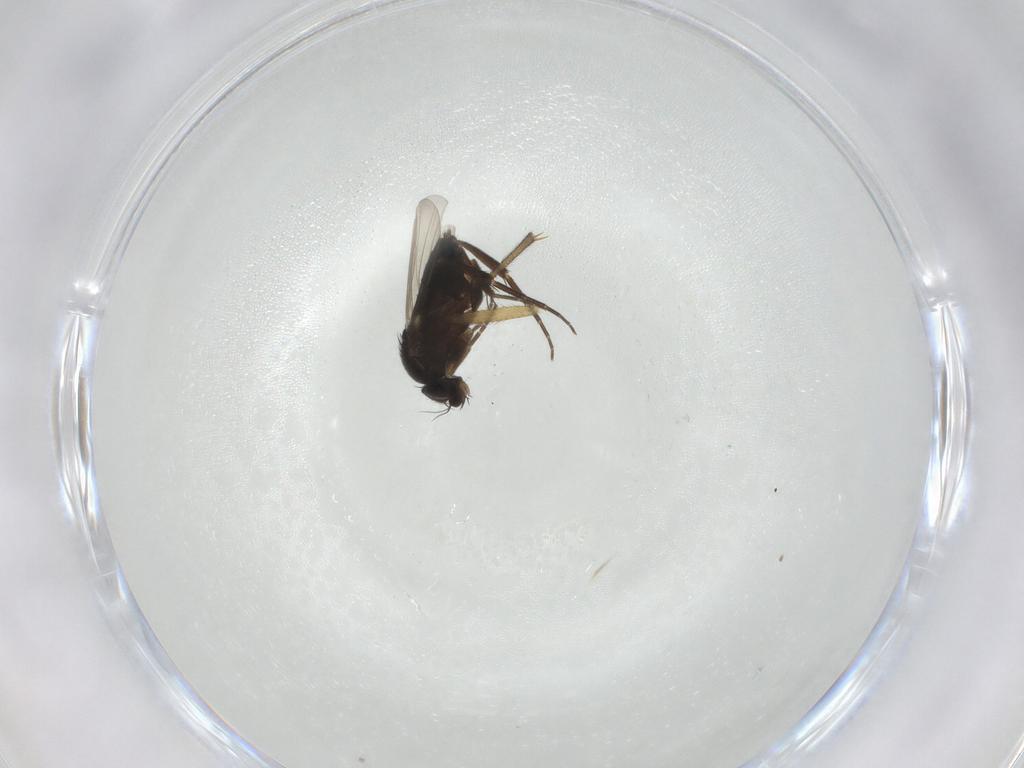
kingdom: Animalia
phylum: Arthropoda
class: Insecta
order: Diptera
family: Phoridae
